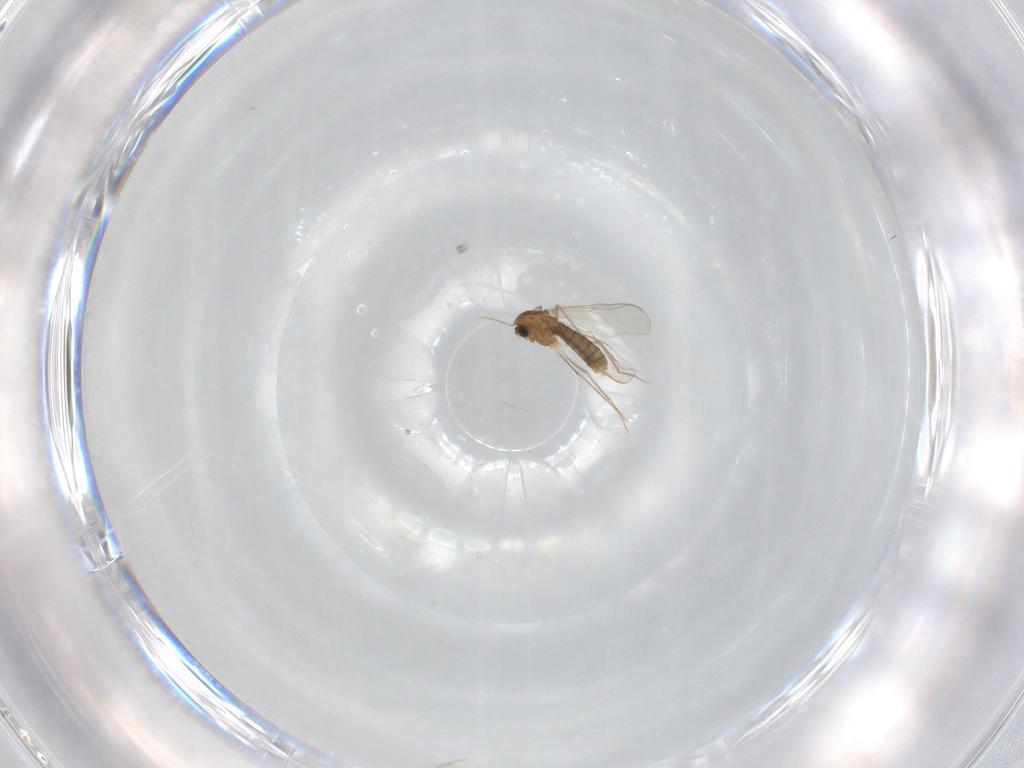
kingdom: Animalia
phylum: Arthropoda
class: Insecta
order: Diptera
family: Chironomidae
